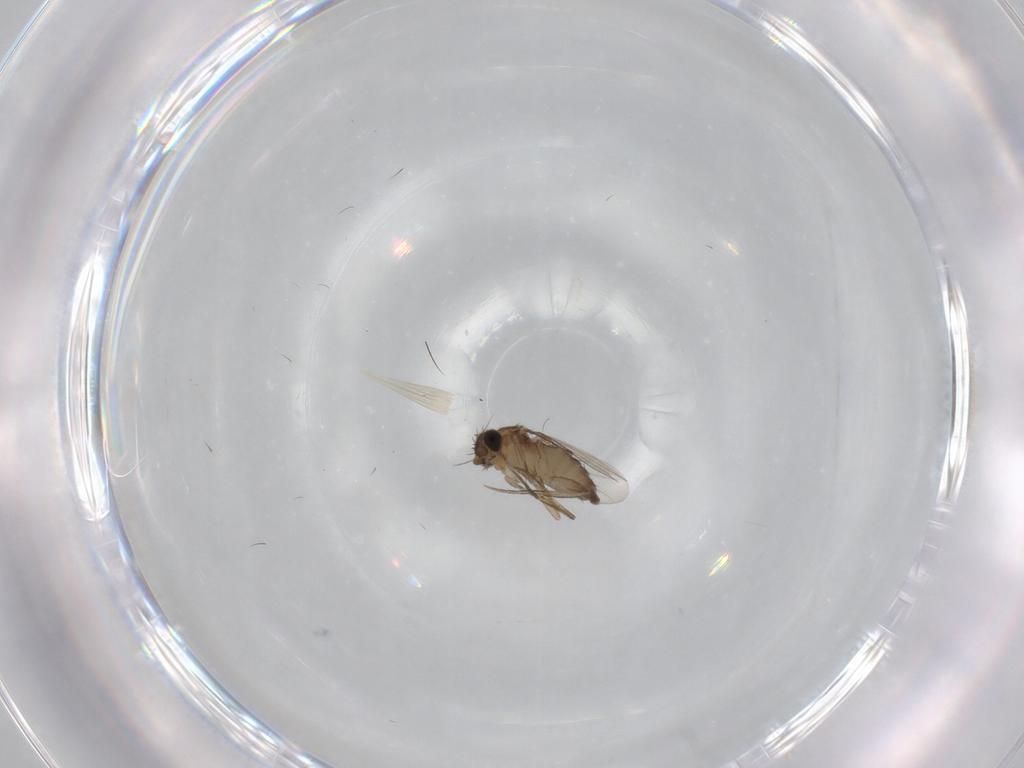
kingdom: Animalia
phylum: Arthropoda
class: Insecta
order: Diptera
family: Phoridae
